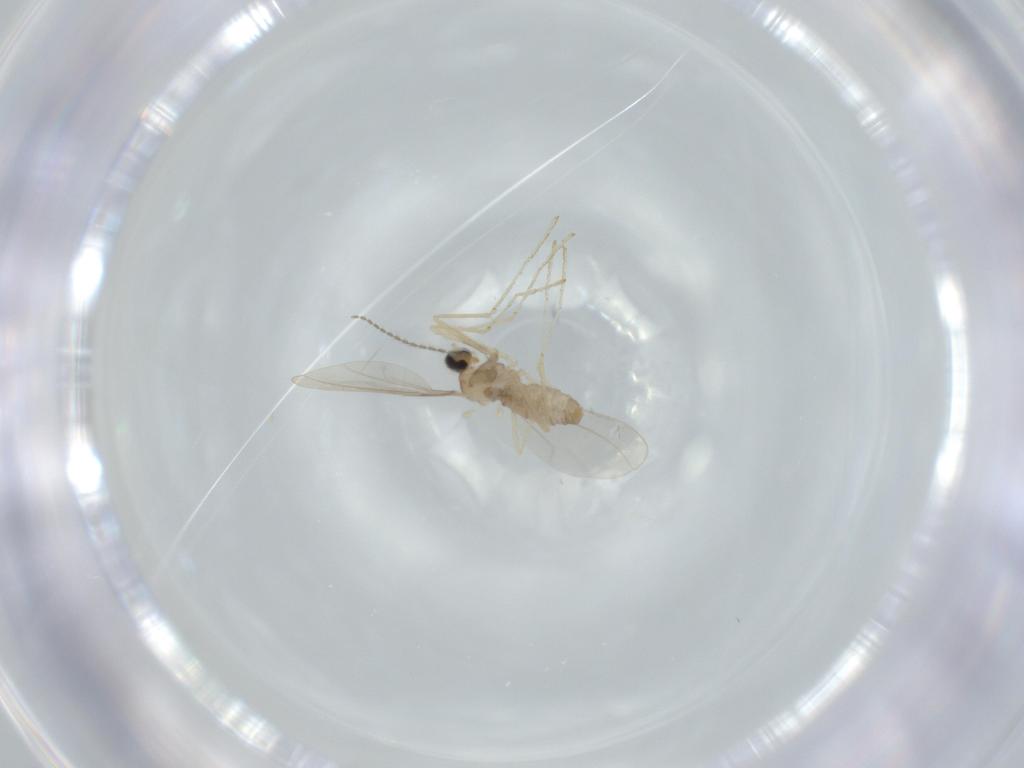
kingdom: Animalia
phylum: Arthropoda
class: Insecta
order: Diptera
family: Cecidomyiidae
